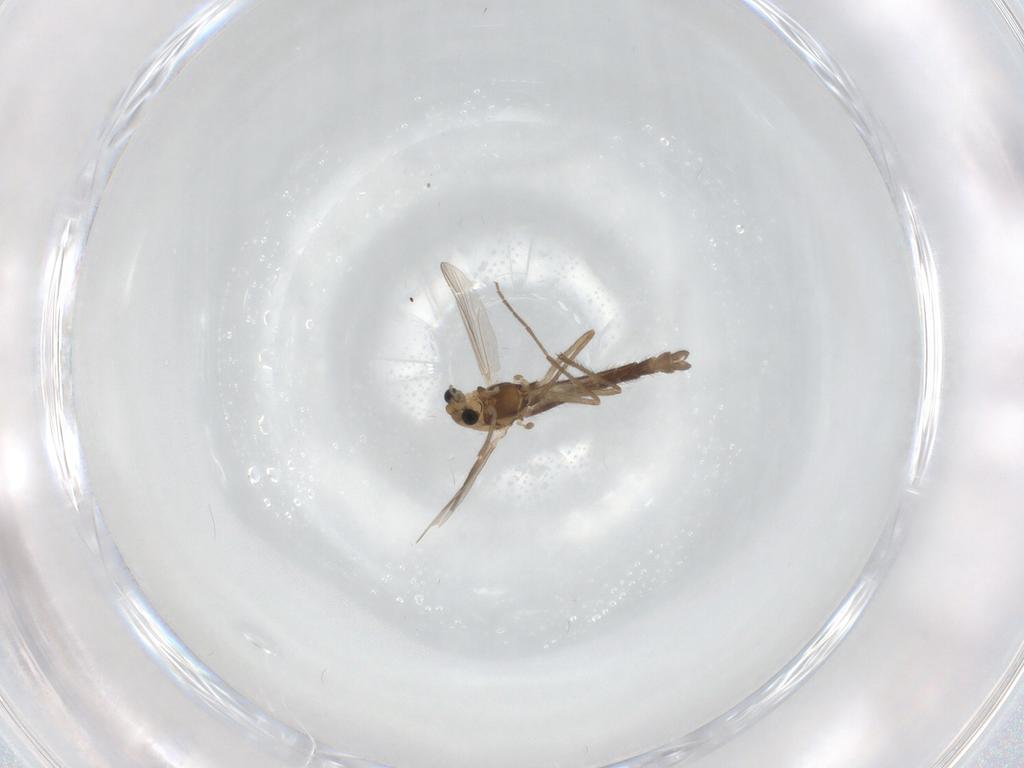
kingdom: Animalia
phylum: Arthropoda
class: Insecta
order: Diptera
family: Chironomidae
